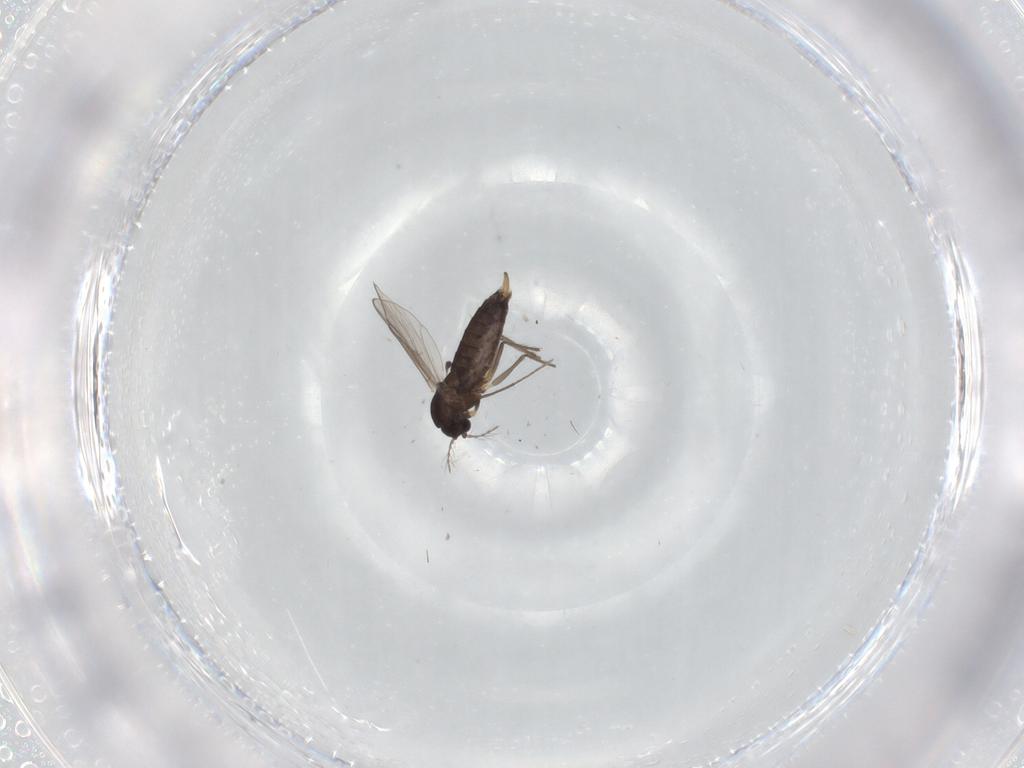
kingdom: Animalia
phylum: Arthropoda
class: Insecta
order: Diptera
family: Chironomidae
